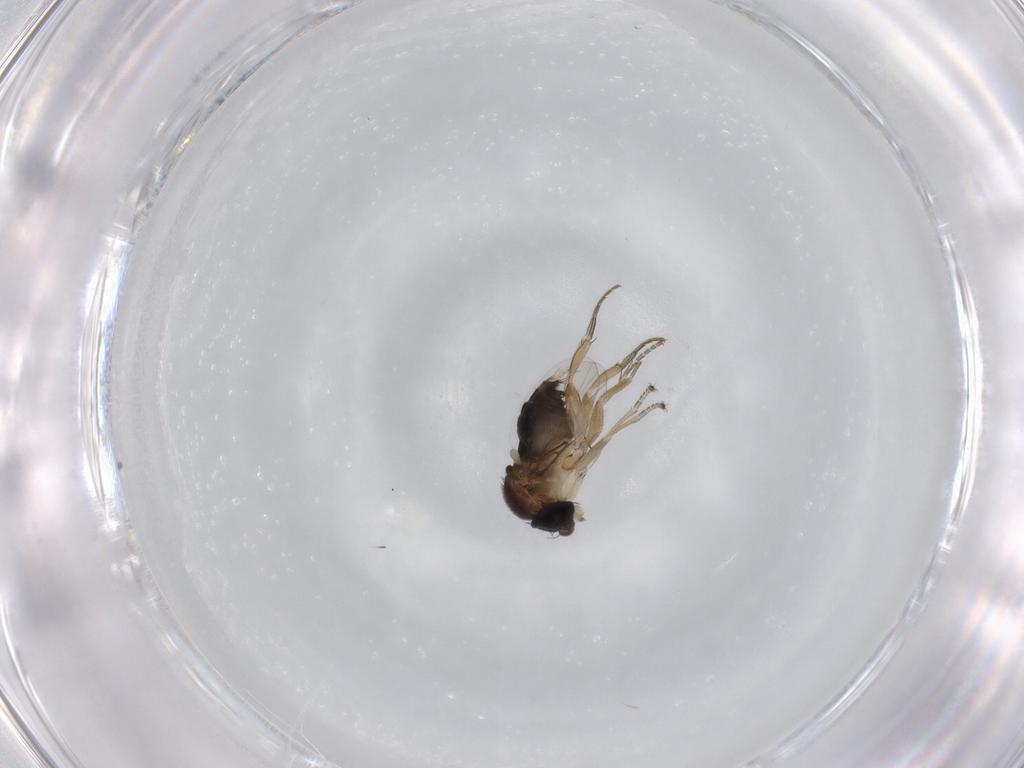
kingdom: Animalia
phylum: Arthropoda
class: Insecta
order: Diptera
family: Phoridae
